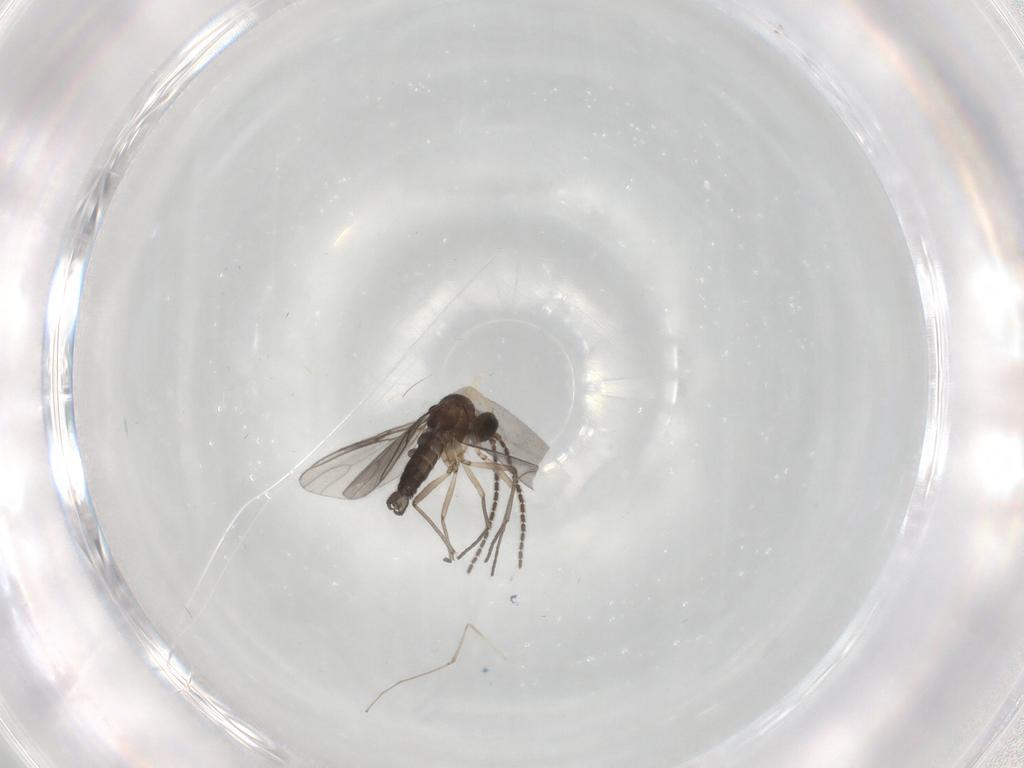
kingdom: Animalia
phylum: Arthropoda
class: Insecta
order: Diptera
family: Sciaridae
